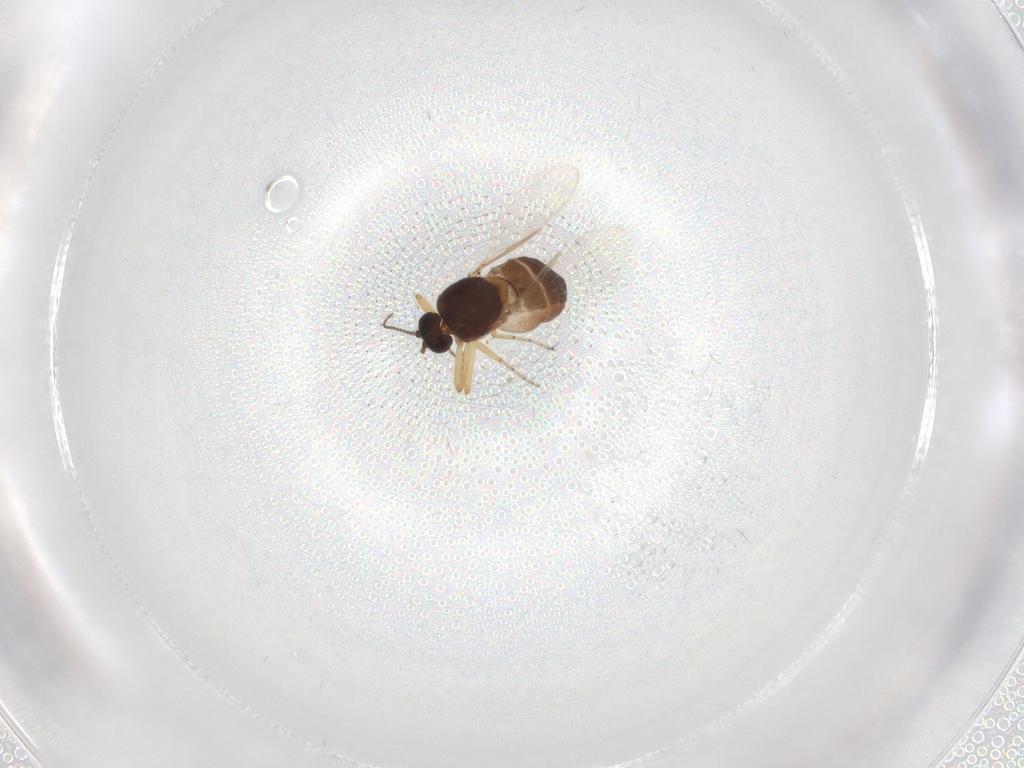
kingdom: Animalia
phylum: Arthropoda
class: Insecta
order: Diptera
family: Ceratopogonidae
